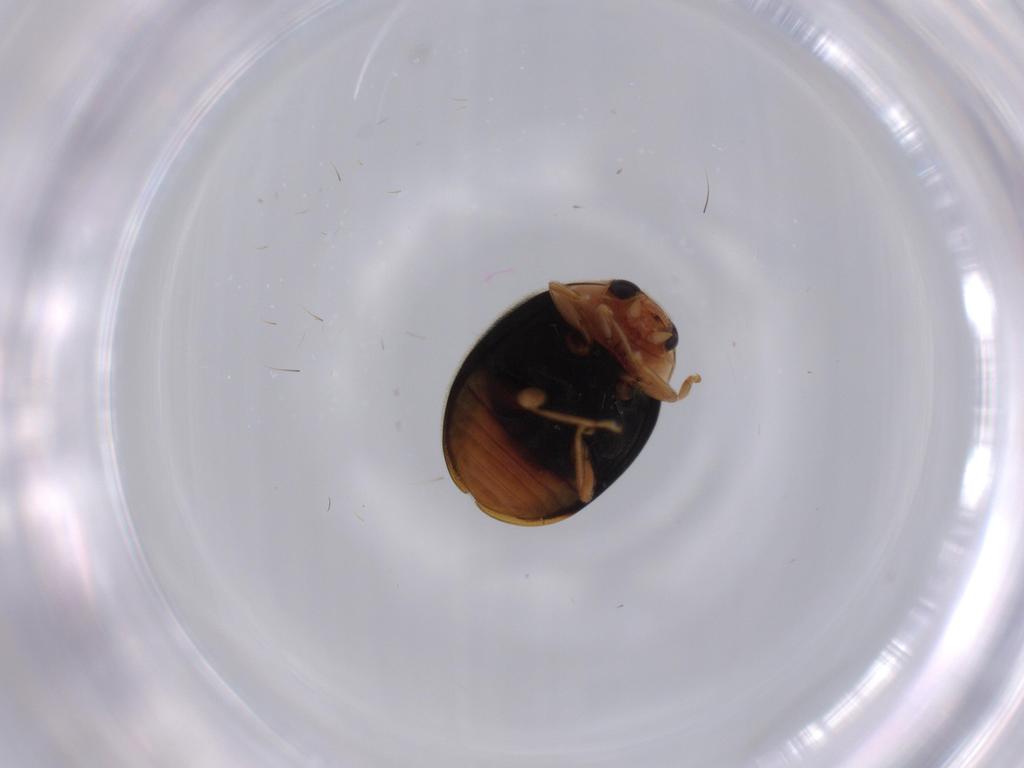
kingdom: Animalia
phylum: Arthropoda
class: Insecta
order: Coleoptera
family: Coccinellidae
